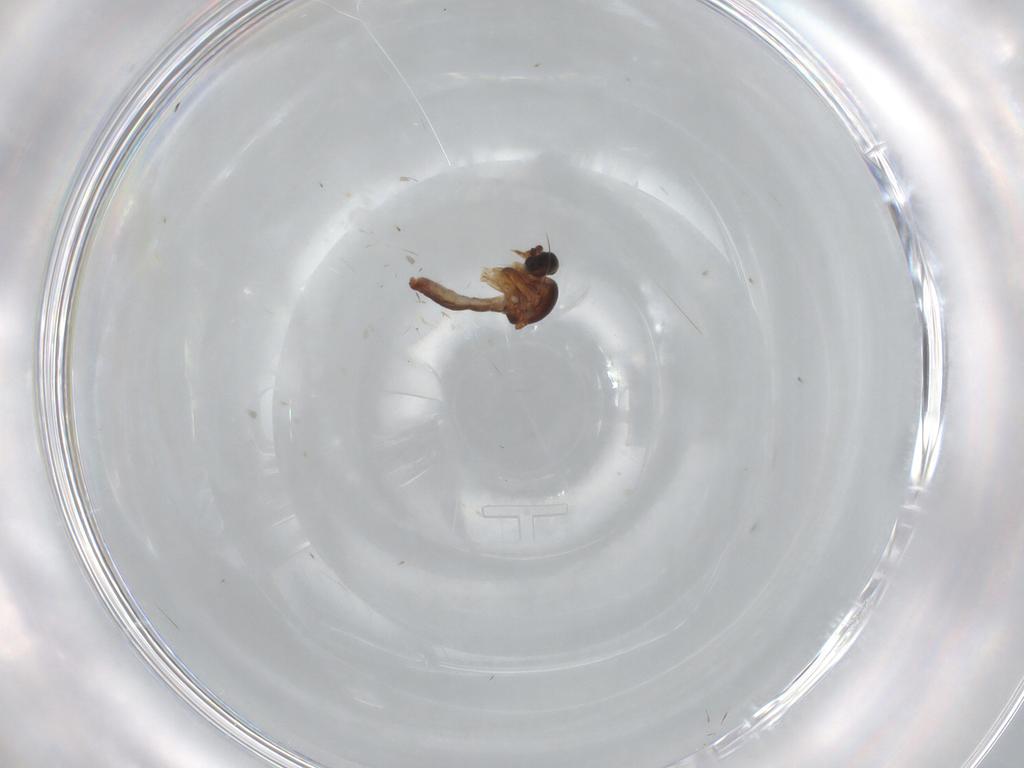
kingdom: Animalia
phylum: Arthropoda
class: Insecta
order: Diptera
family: Ceratopogonidae
